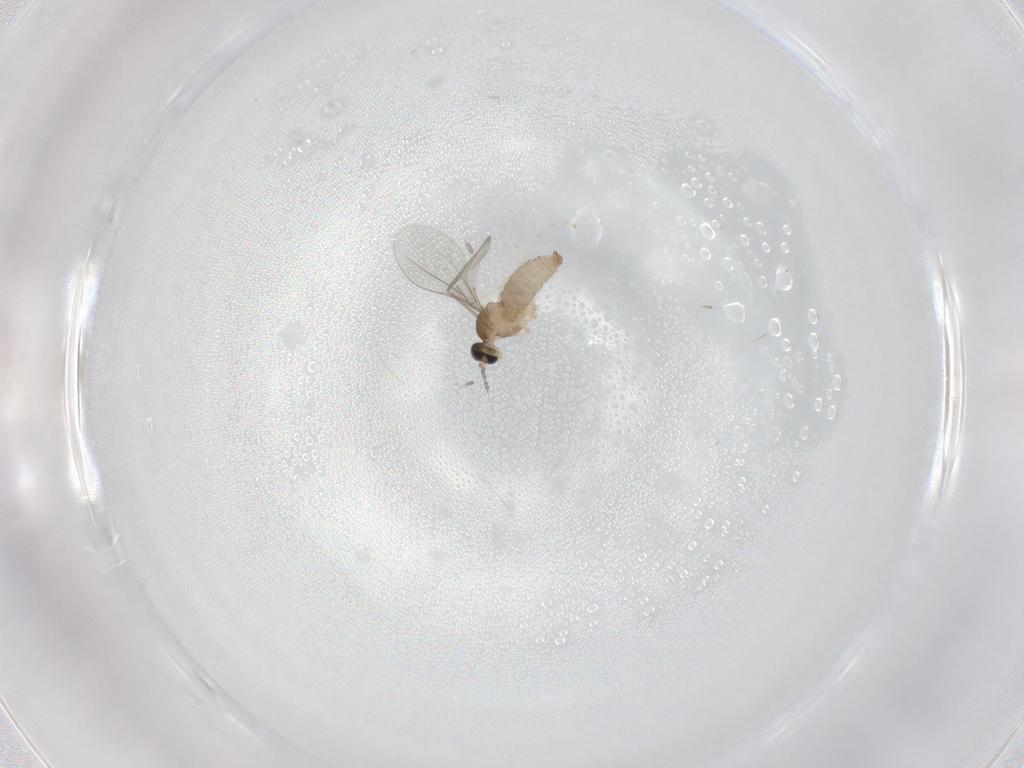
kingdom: Animalia
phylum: Arthropoda
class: Insecta
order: Diptera
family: Cecidomyiidae
